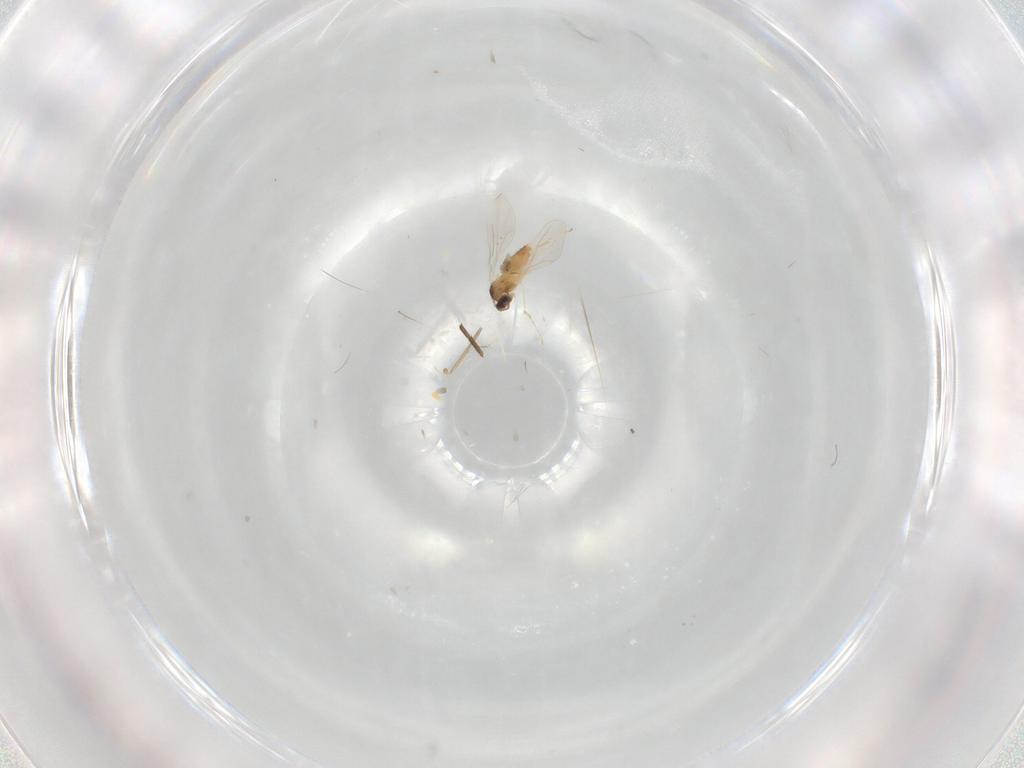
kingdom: Animalia
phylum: Arthropoda
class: Insecta
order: Diptera
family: Cecidomyiidae
